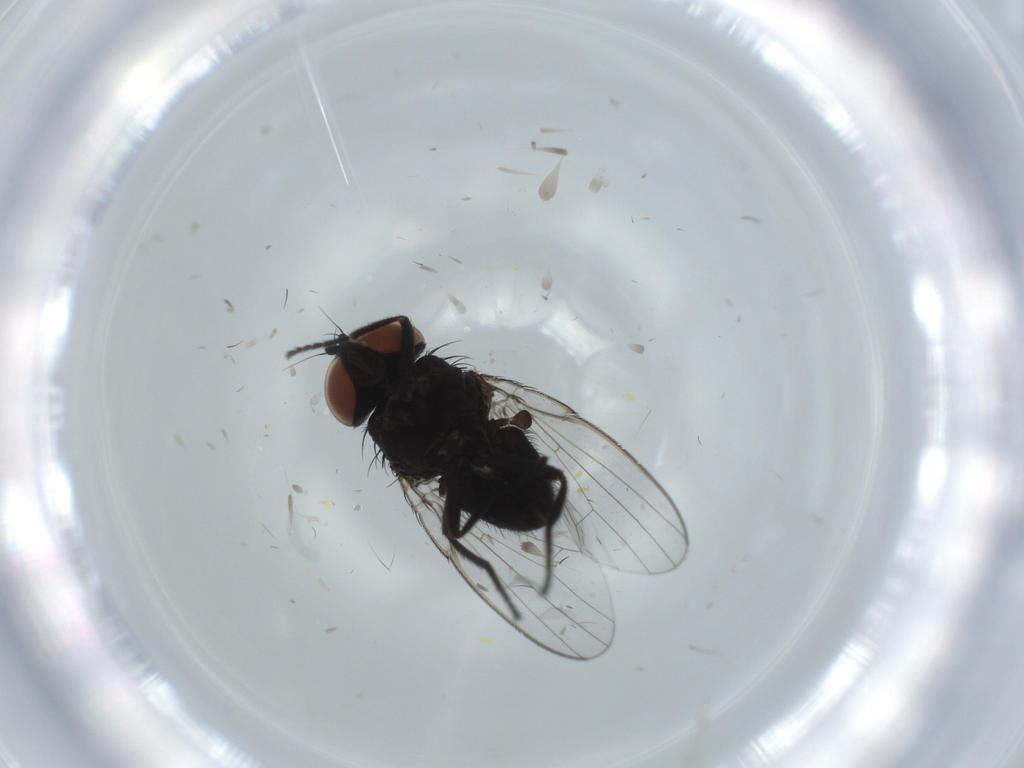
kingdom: Animalia
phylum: Arthropoda
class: Insecta
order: Diptera
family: Cecidomyiidae
